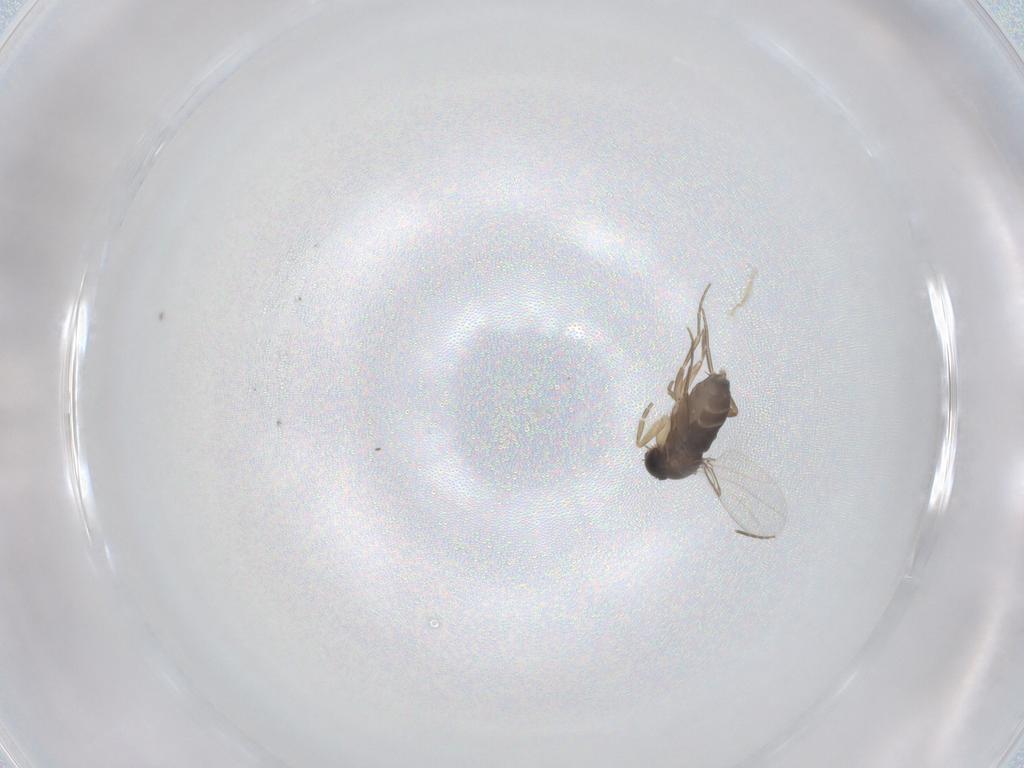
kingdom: Animalia
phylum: Arthropoda
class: Insecta
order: Diptera
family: Phoridae
